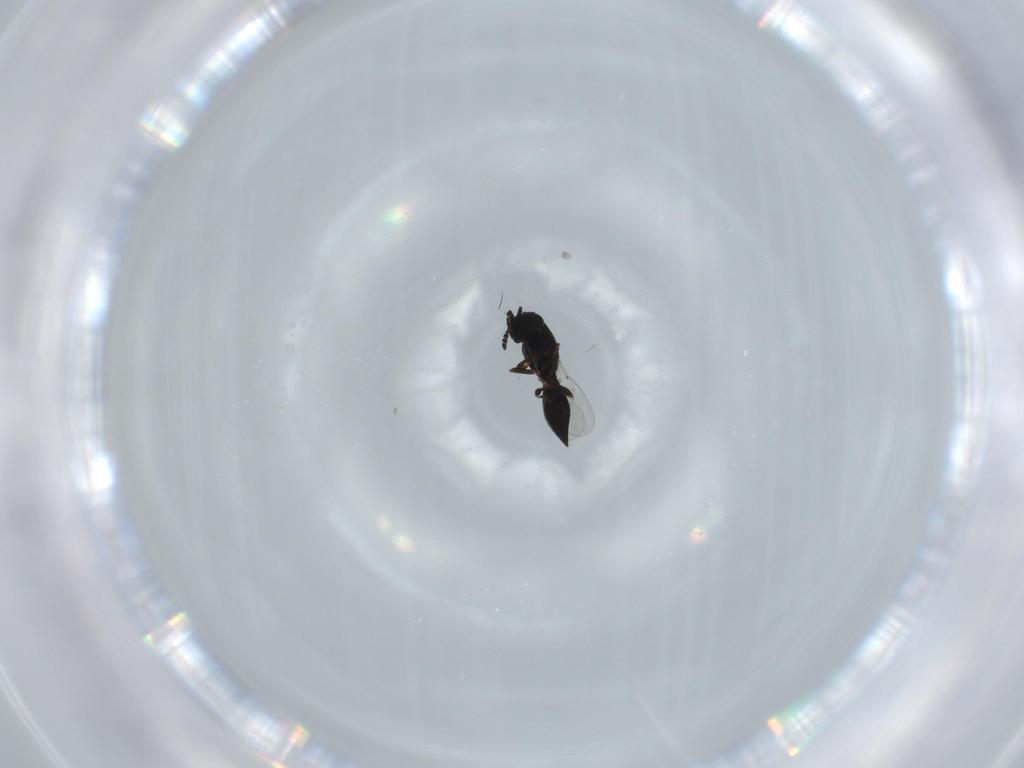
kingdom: Animalia
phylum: Arthropoda
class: Insecta
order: Hymenoptera
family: Platygastridae
